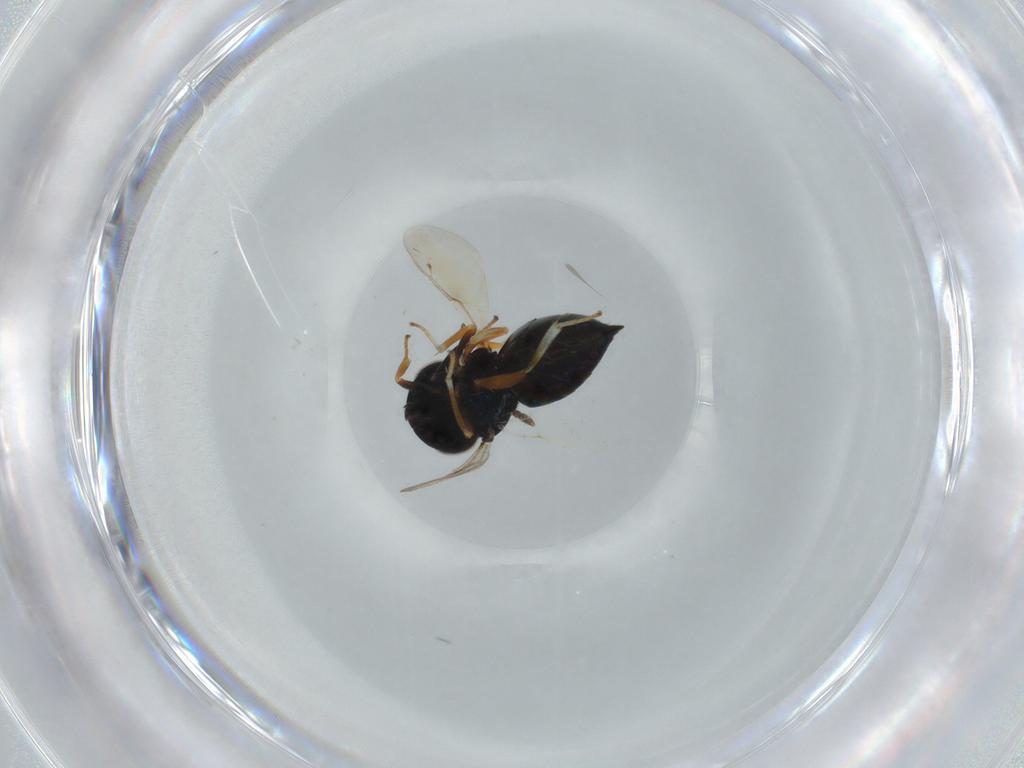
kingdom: Animalia
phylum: Arthropoda
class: Insecta
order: Hymenoptera
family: Pteromalidae
